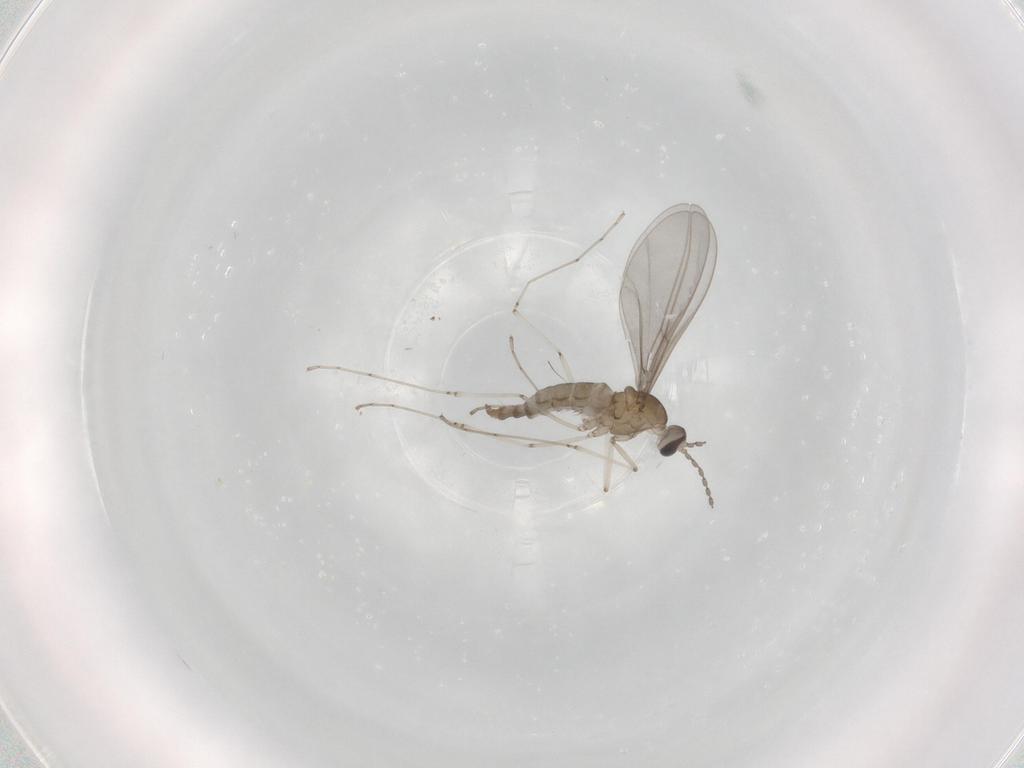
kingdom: Animalia
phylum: Arthropoda
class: Insecta
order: Diptera
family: Cecidomyiidae
